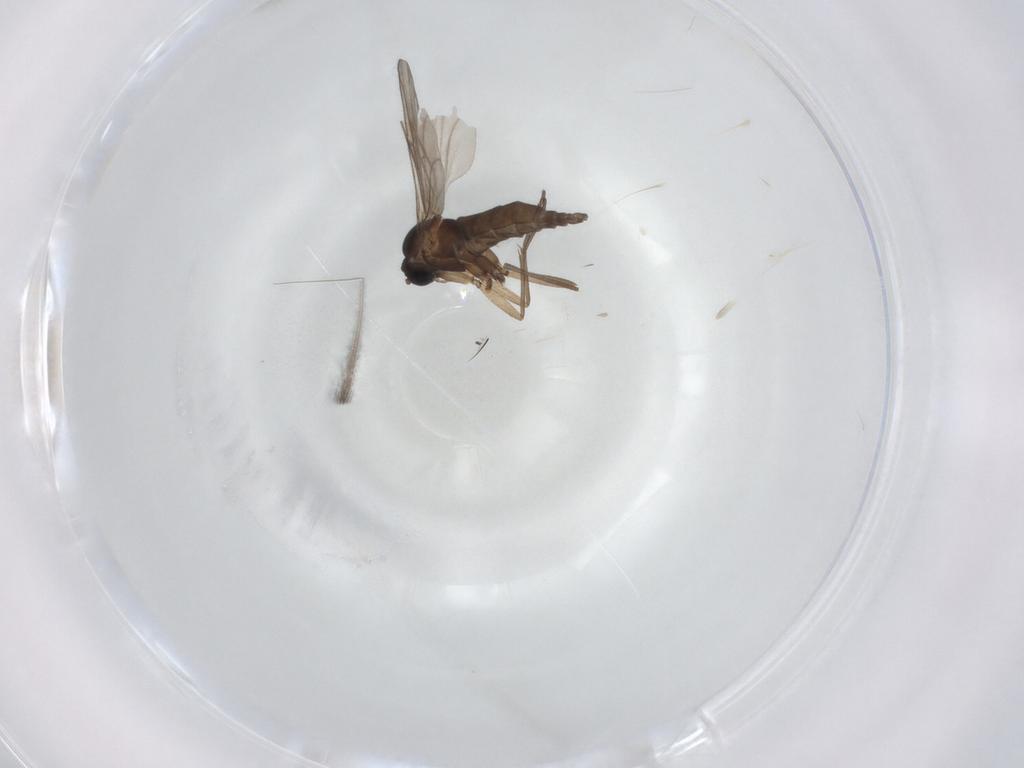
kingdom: Animalia
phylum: Arthropoda
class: Insecta
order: Diptera
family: Sciaridae
